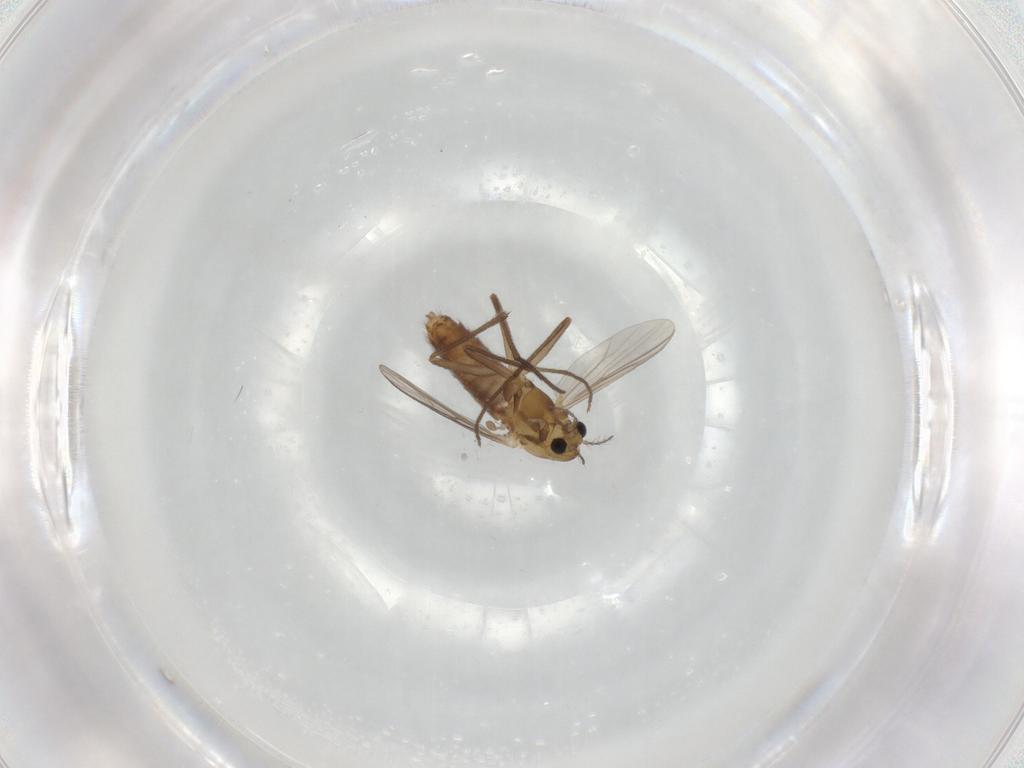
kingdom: Animalia
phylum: Arthropoda
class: Insecta
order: Diptera
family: Chironomidae
